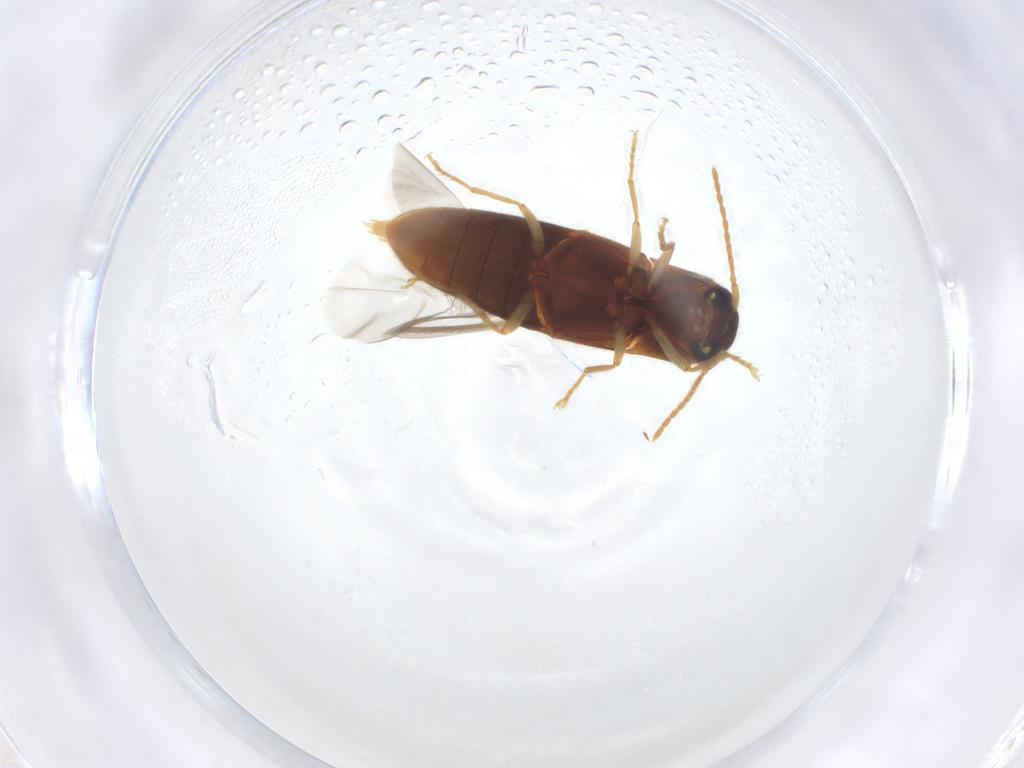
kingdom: Animalia
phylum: Arthropoda
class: Insecta
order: Coleoptera
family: Elateridae
